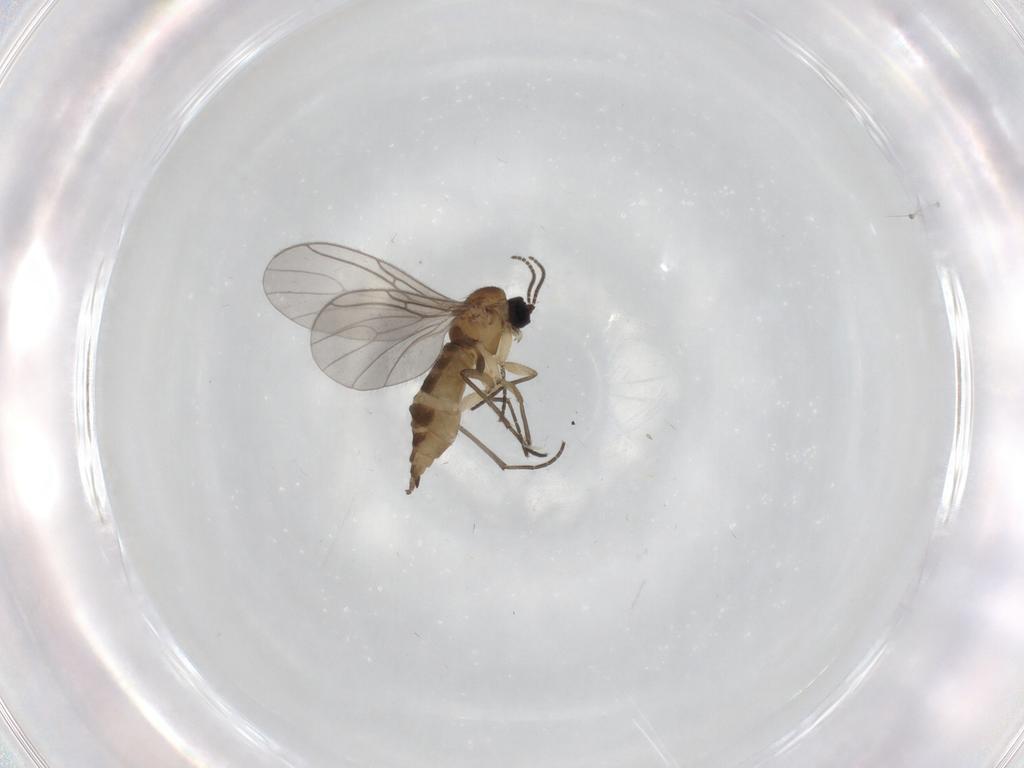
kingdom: Animalia
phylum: Arthropoda
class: Insecta
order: Diptera
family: Sciaridae
